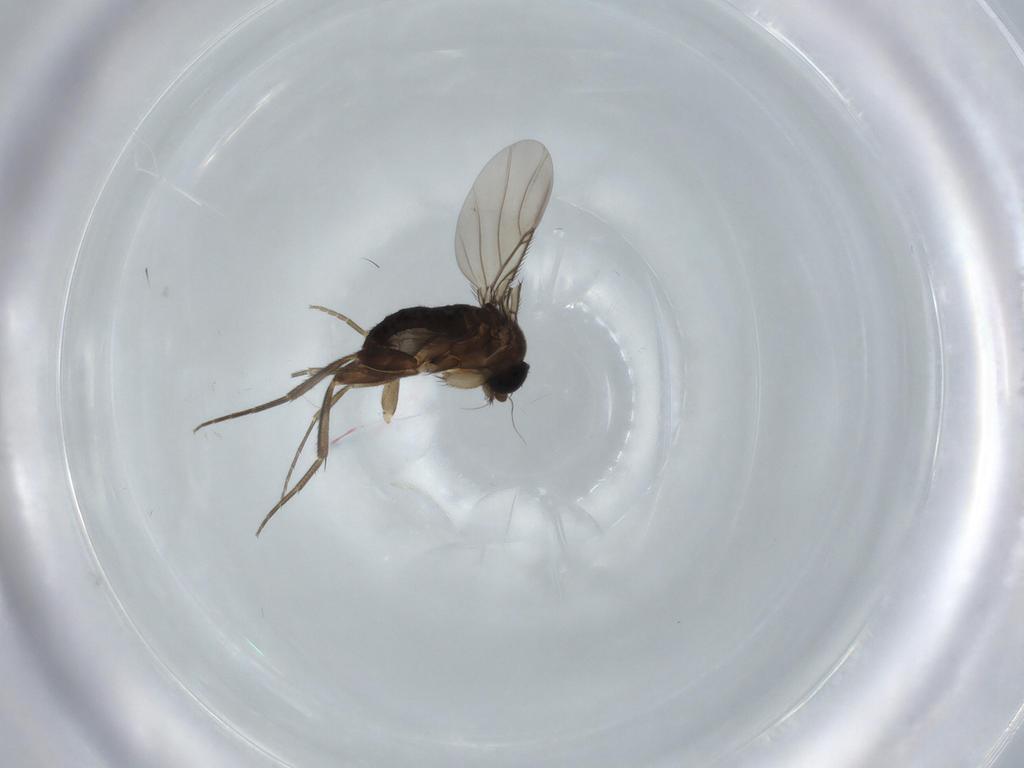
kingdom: Animalia
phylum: Arthropoda
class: Insecta
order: Diptera
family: Phoridae
